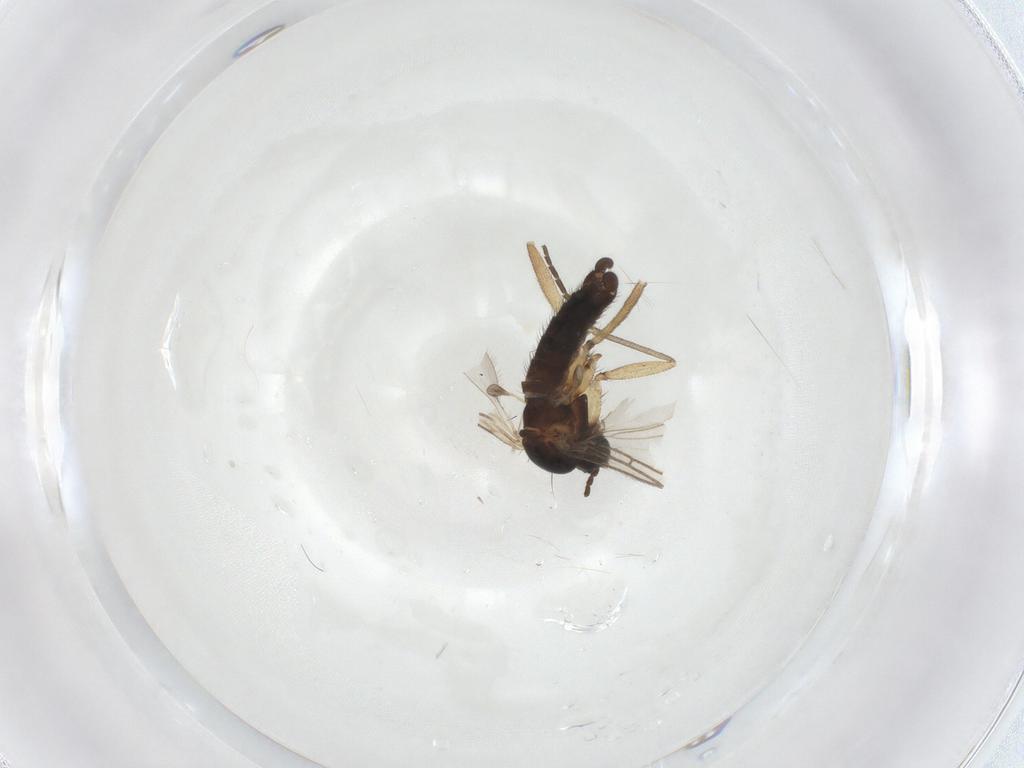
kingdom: Animalia
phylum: Arthropoda
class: Insecta
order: Diptera
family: Sciaridae
